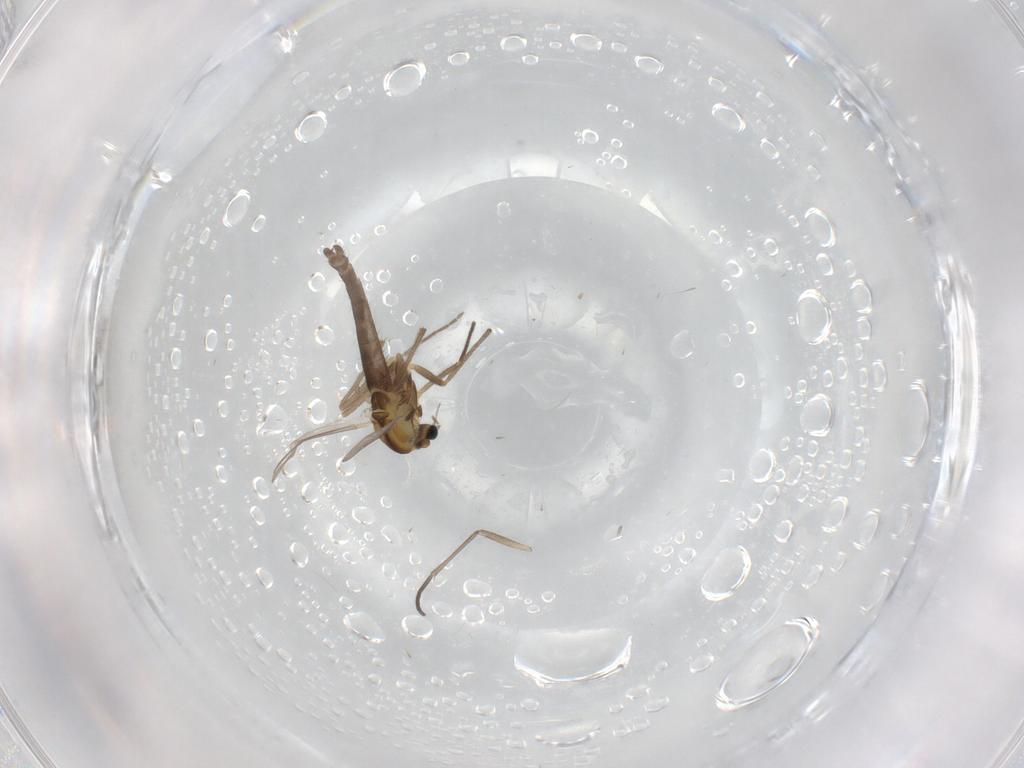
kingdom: Animalia
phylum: Arthropoda
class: Insecta
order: Diptera
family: Chironomidae
